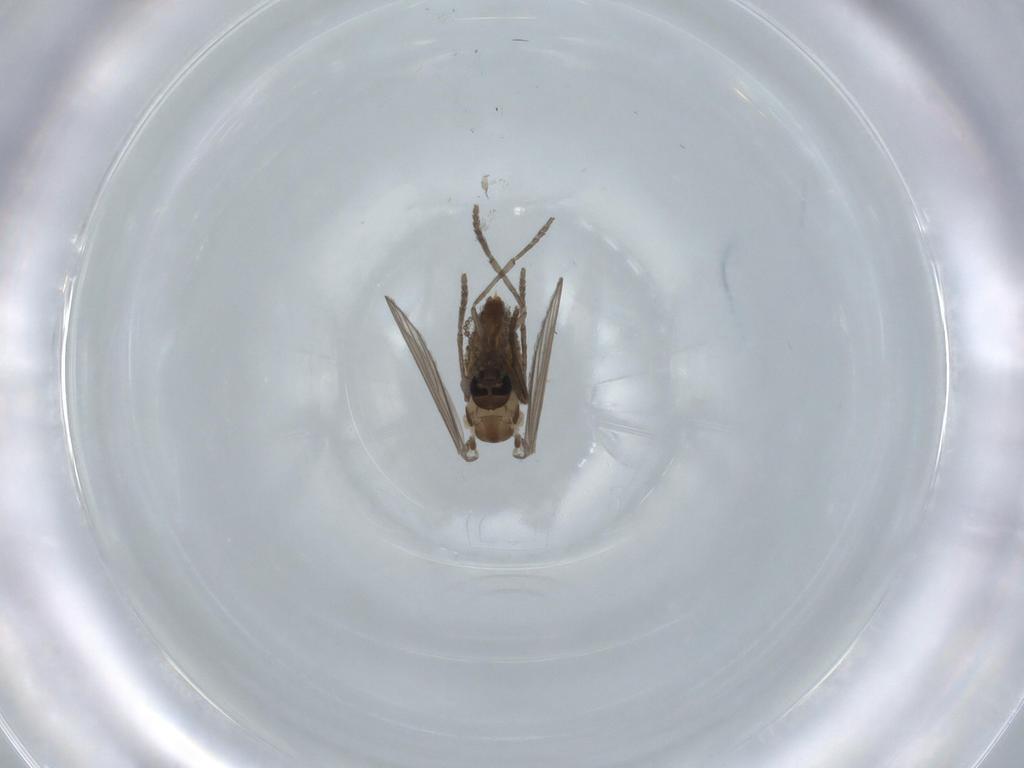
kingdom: Animalia
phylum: Arthropoda
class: Insecta
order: Diptera
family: Psychodidae
